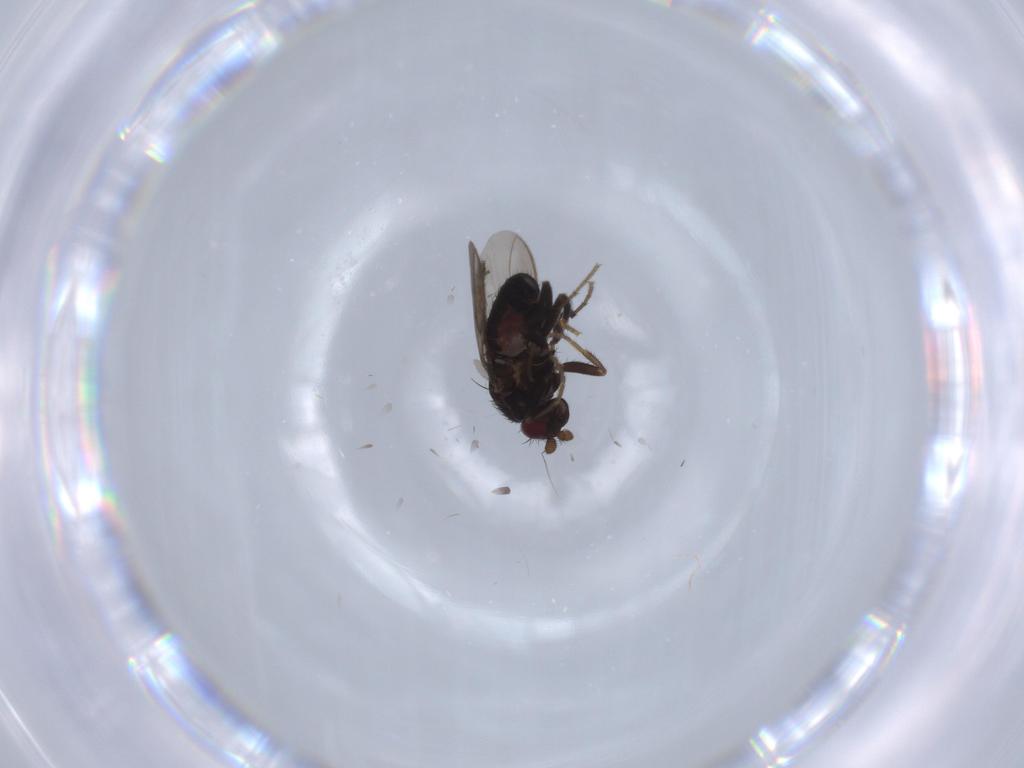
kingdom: Animalia
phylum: Arthropoda
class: Insecta
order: Diptera
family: Sphaeroceridae
